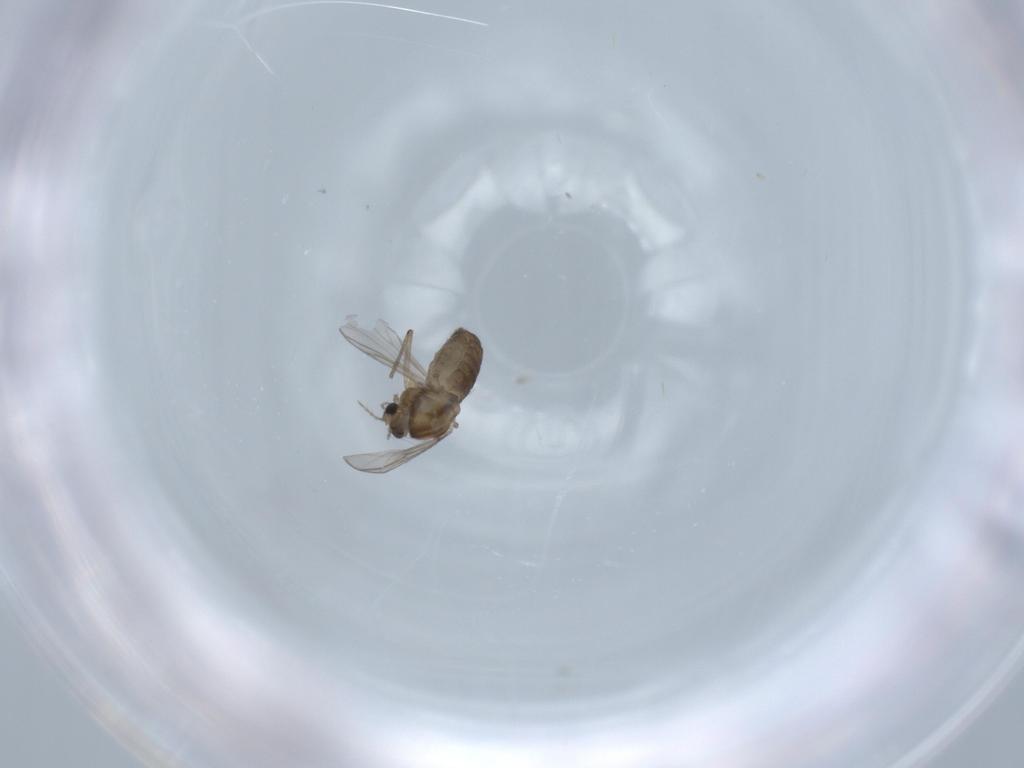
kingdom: Animalia
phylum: Arthropoda
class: Insecta
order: Diptera
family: Chironomidae
